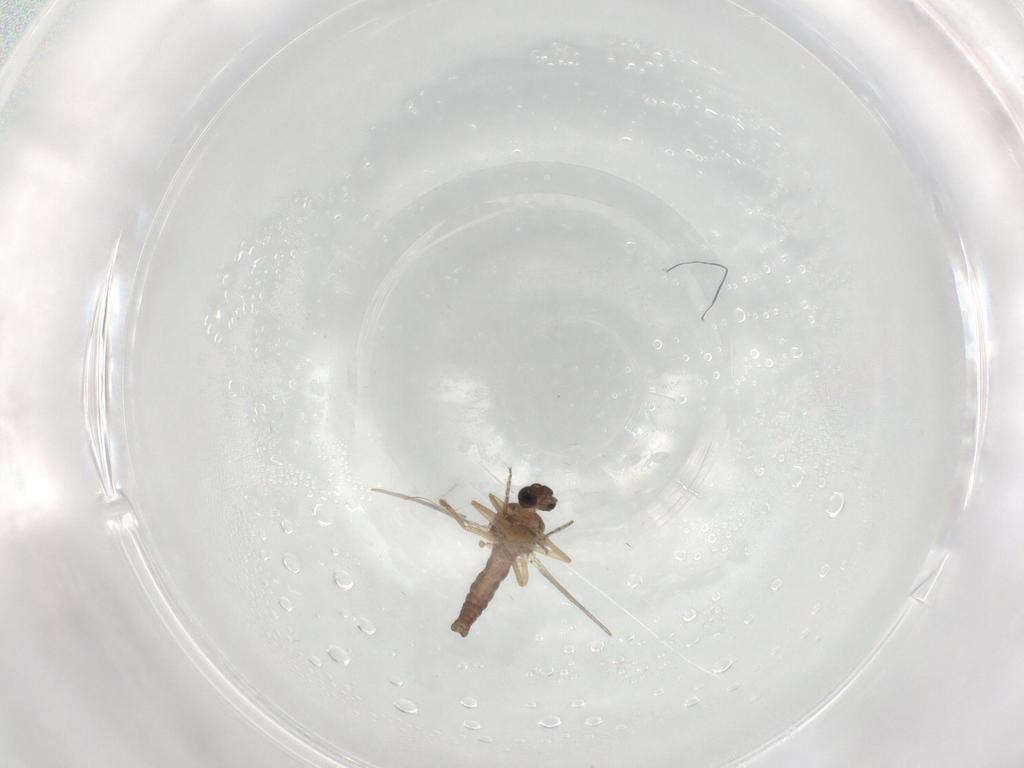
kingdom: Animalia
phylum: Arthropoda
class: Insecta
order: Diptera
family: Ceratopogonidae
